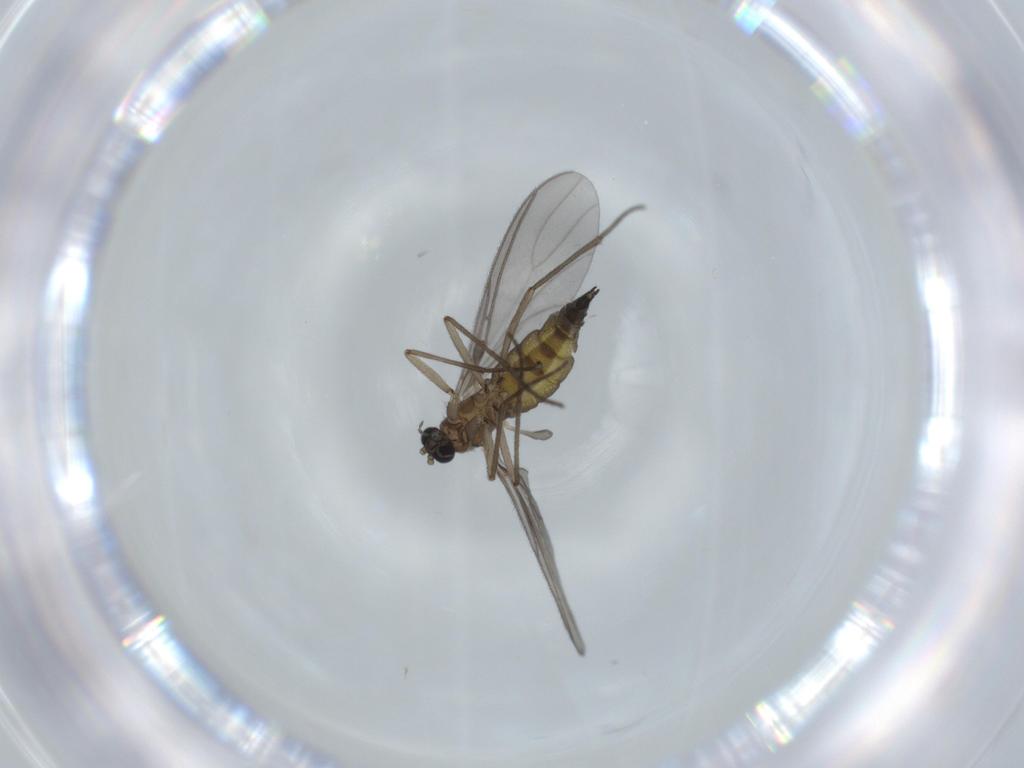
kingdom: Animalia
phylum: Arthropoda
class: Insecta
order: Diptera
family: Sciaridae
